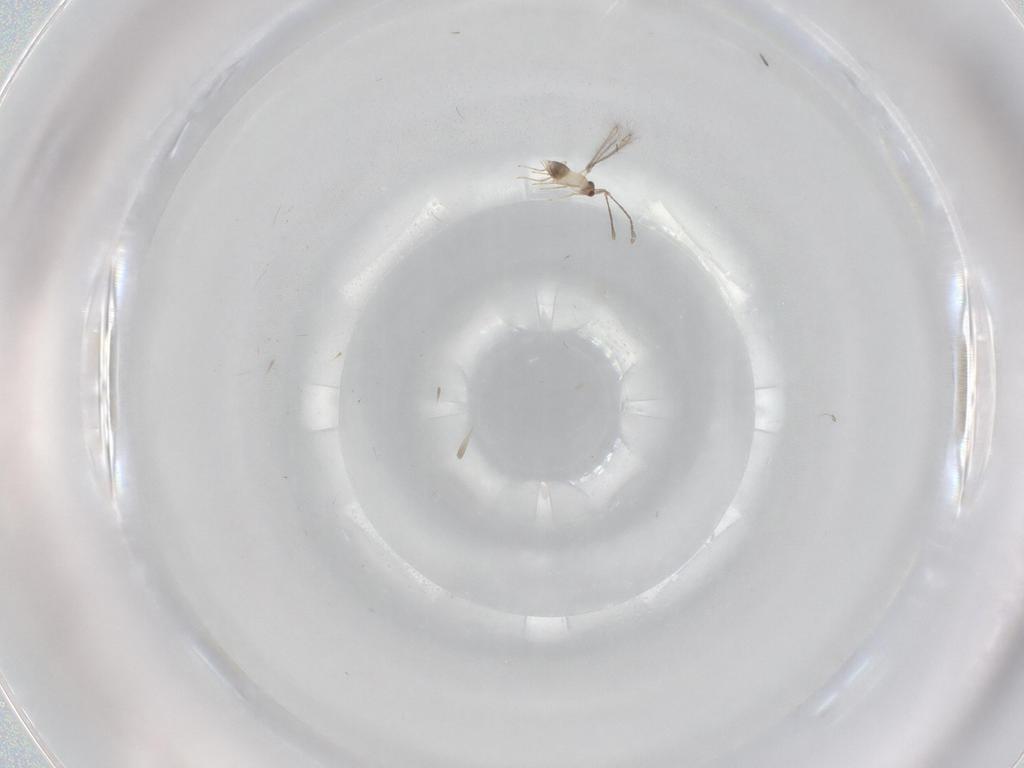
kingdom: Animalia
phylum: Arthropoda
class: Insecta
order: Hymenoptera
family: Mymaridae
